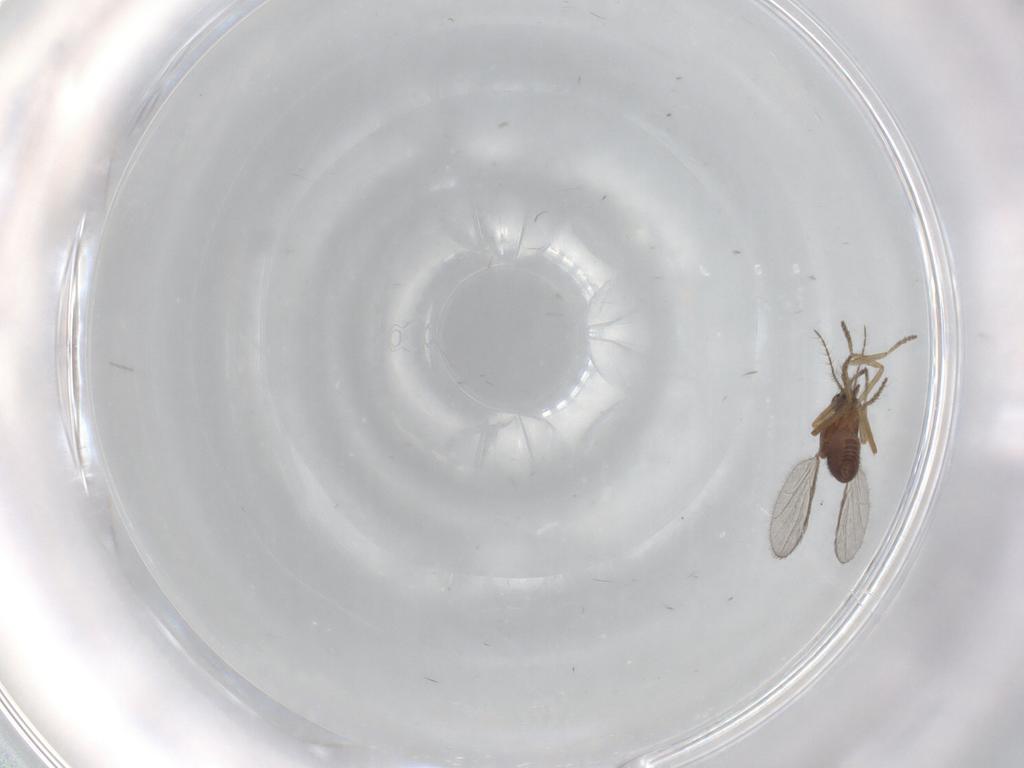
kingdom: Animalia
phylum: Arthropoda
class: Insecta
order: Diptera
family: Ceratopogonidae
